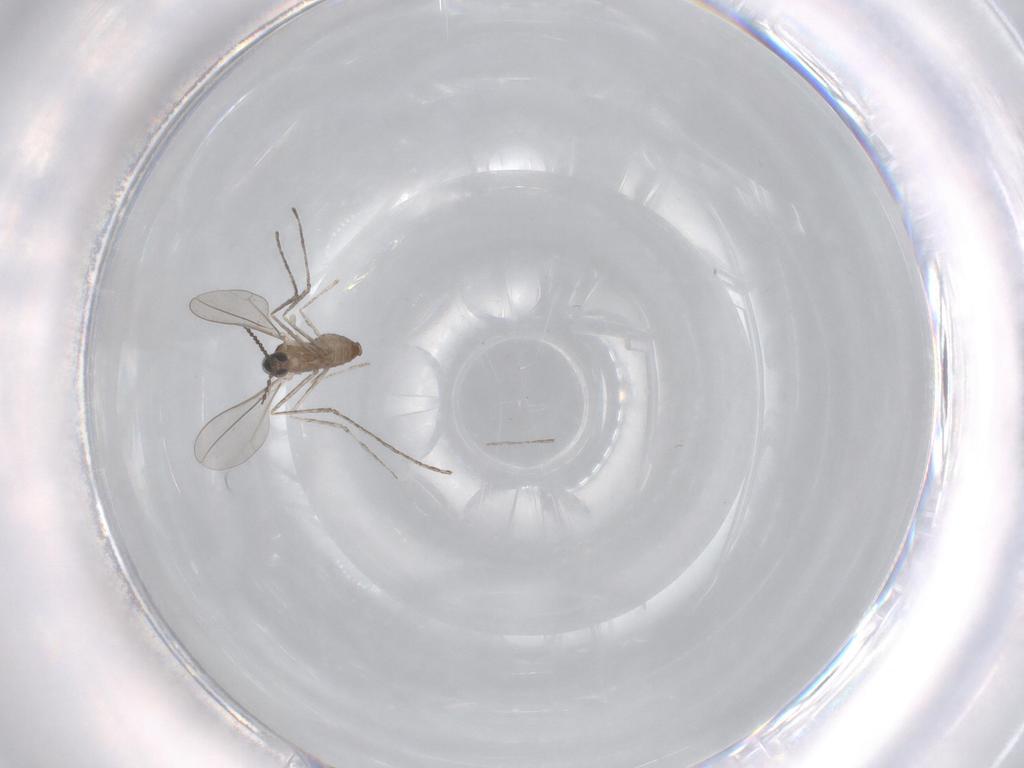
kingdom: Animalia
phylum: Arthropoda
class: Insecta
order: Diptera
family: Cecidomyiidae
